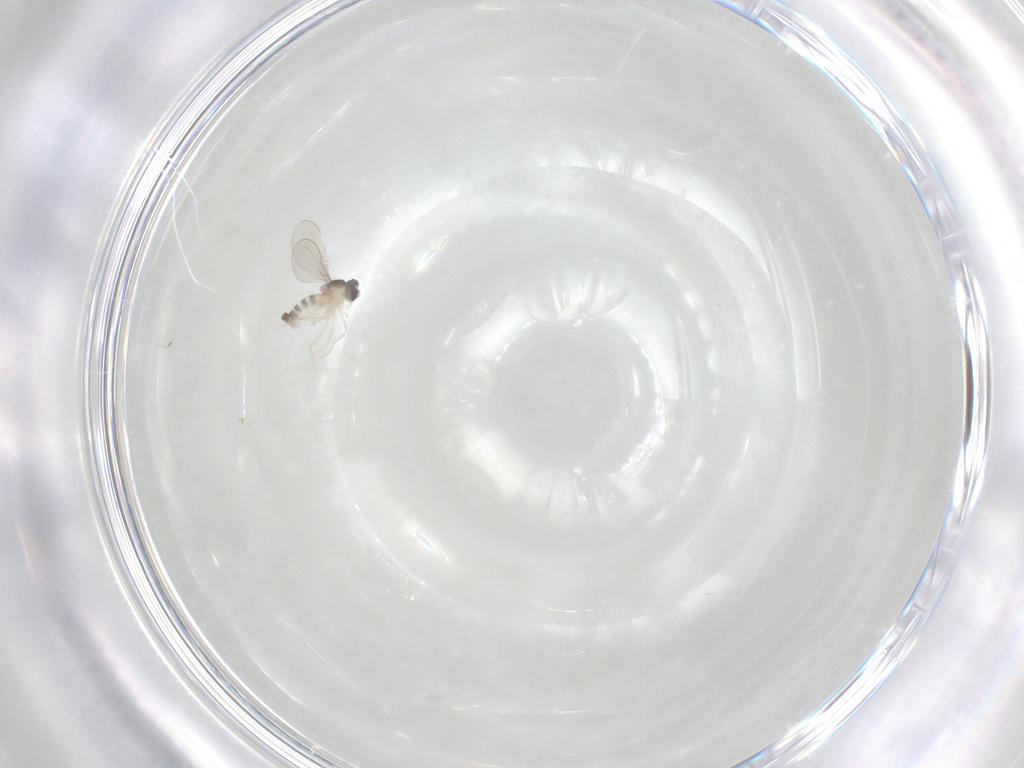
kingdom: Animalia
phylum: Arthropoda
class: Insecta
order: Diptera
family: Cecidomyiidae
